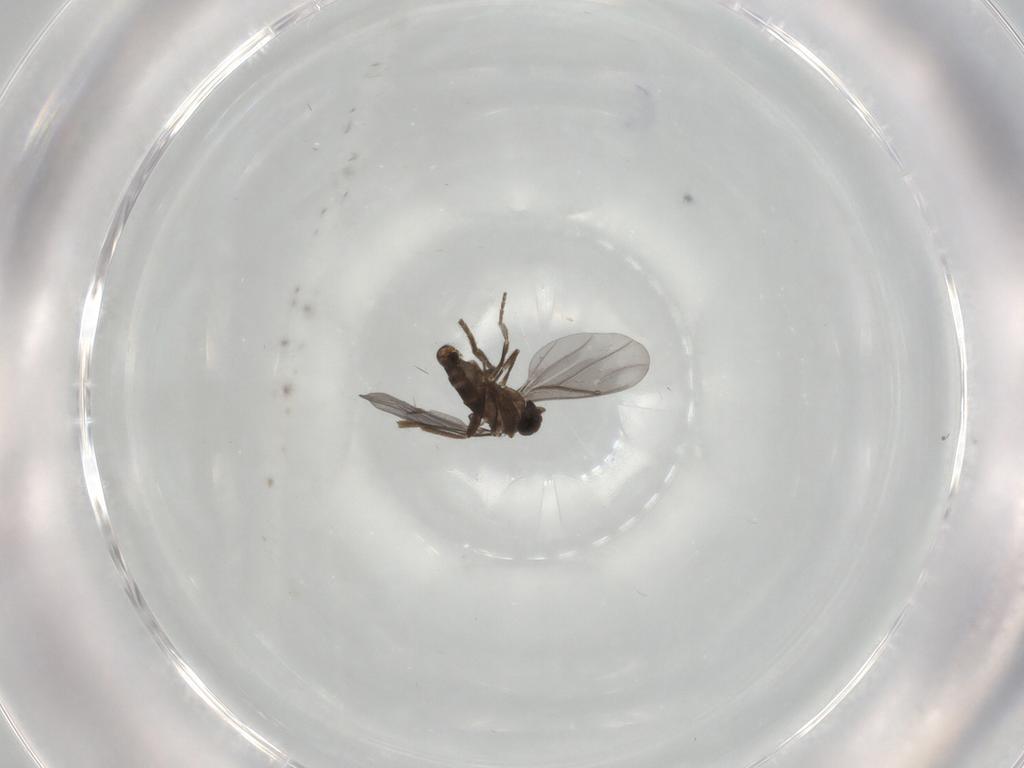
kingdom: Animalia
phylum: Arthropoda
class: Insecta
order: Diptera
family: Phoridae
